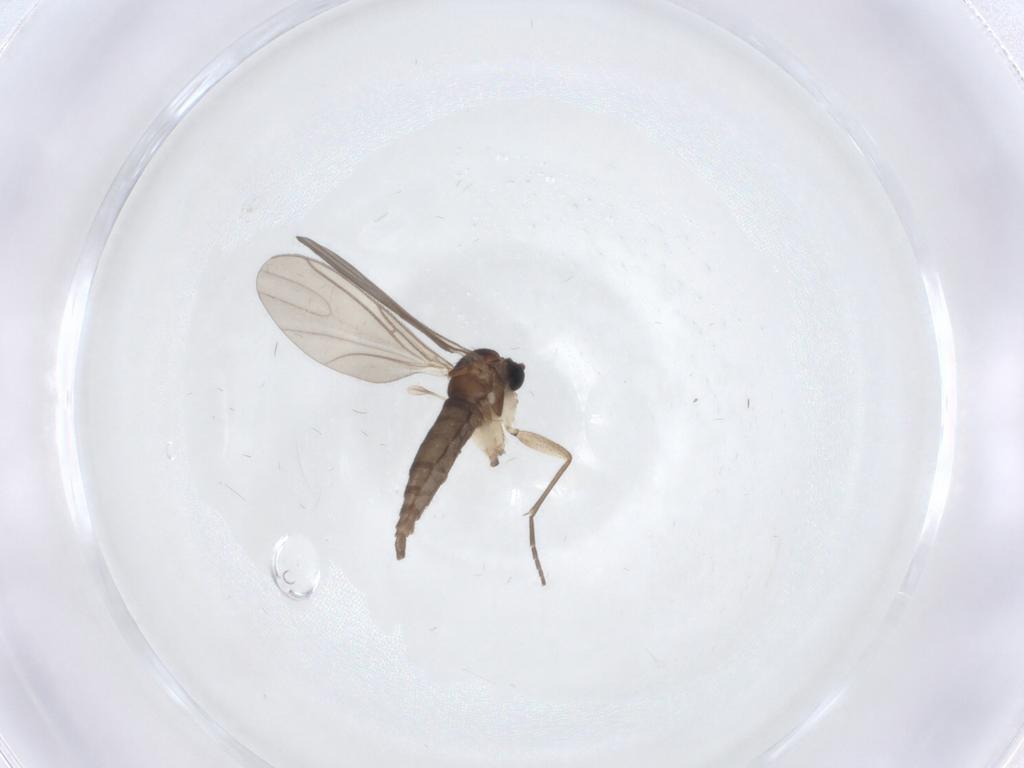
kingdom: Animalia
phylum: Arthropoda
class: Insecta
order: Diptera
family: Sciaridae
